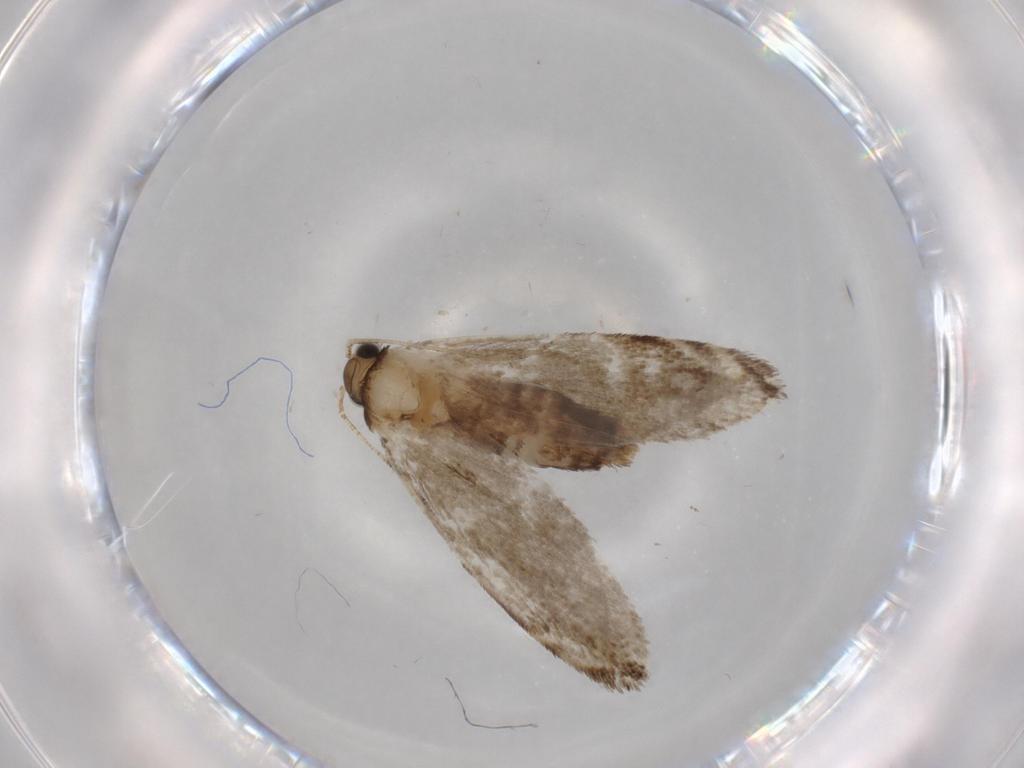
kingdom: Animalia
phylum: Arthropoda
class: Insecta
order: Lepidoptera
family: Tineidae
